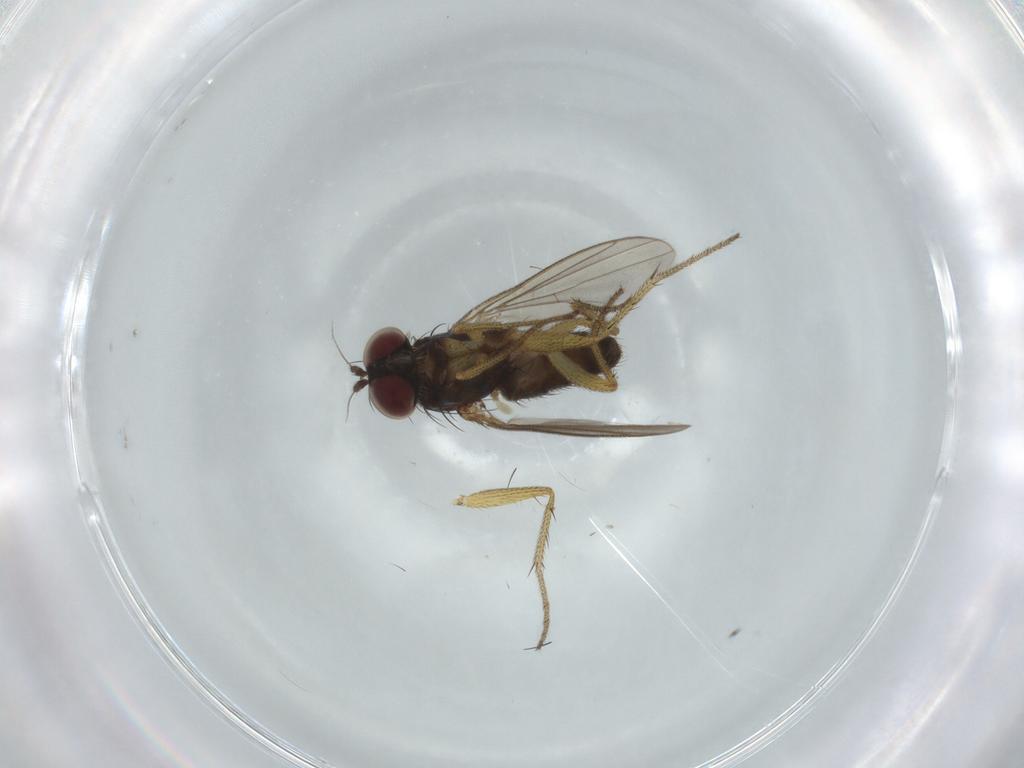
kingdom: Animalia
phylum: Arthropoda
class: Insecta
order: Diptera
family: Dolichopodidae
